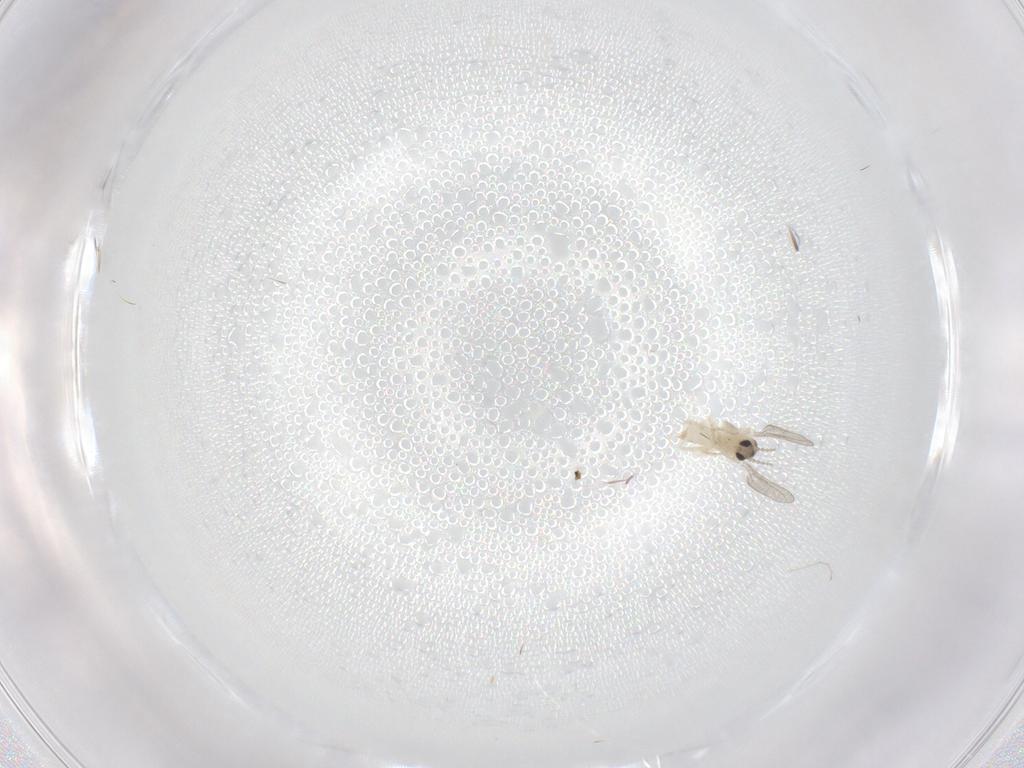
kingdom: Animalia
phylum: Arthropoda
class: Insecta
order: Diptera
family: Cecidomyiidae
